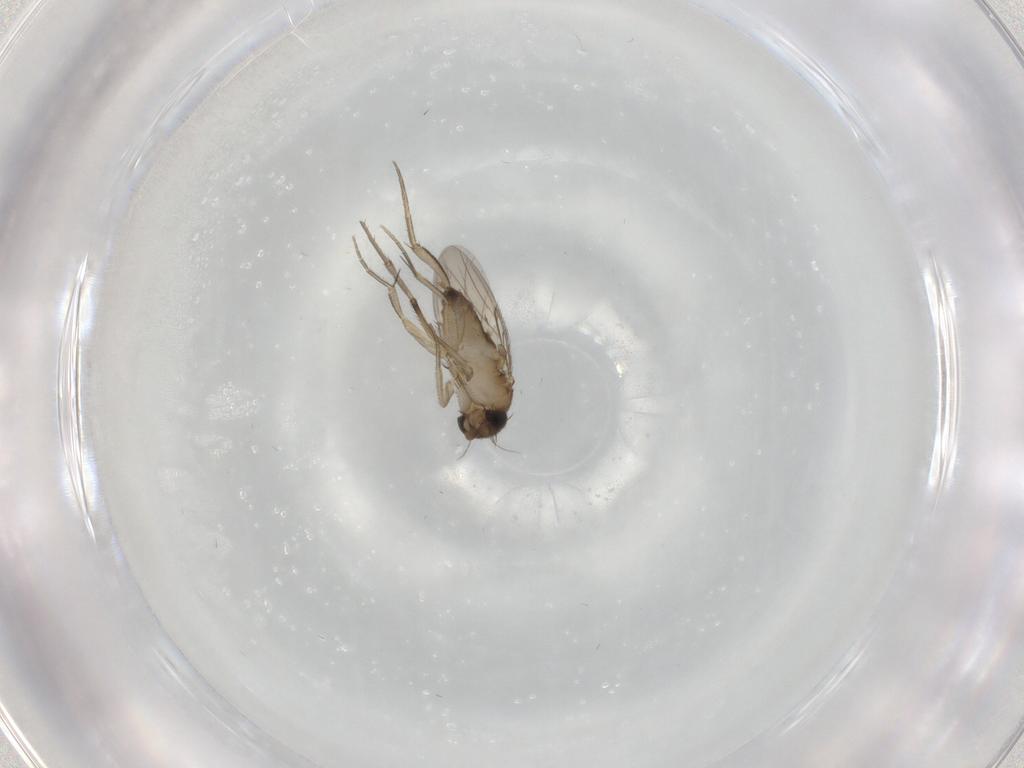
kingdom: Animalia
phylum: Arthropoda
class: Insecta
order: Diptera
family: Phoridae
